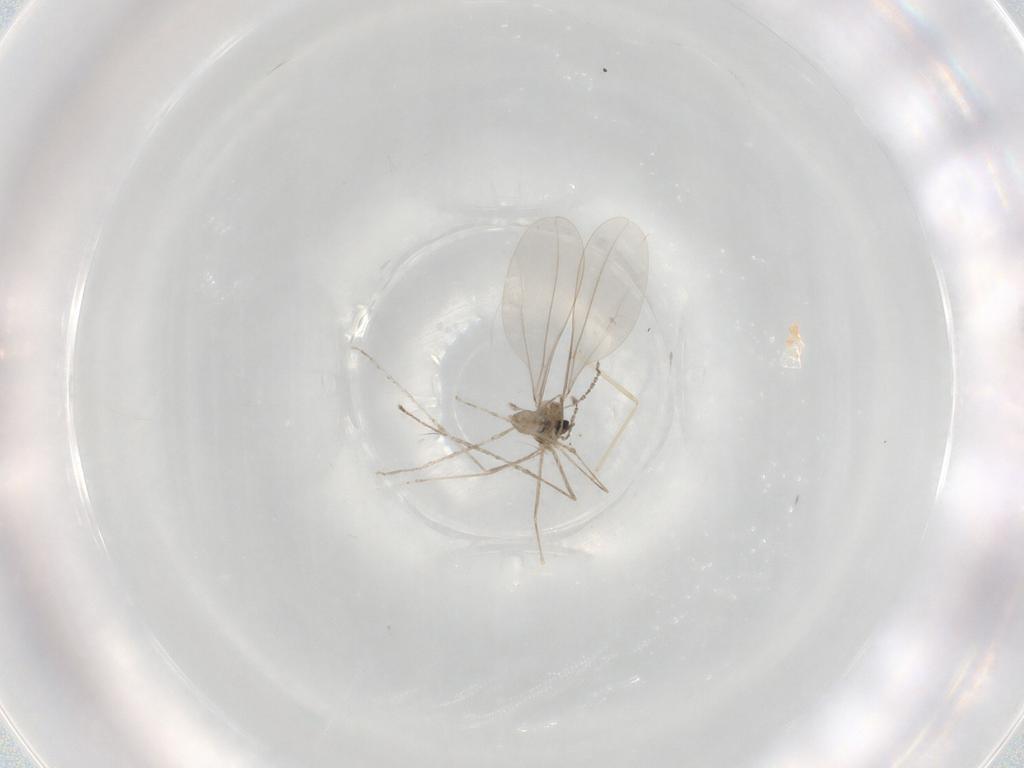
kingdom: Animalia
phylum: Arthropoda
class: Insecta
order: Diptera
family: Cecidomyiidae
